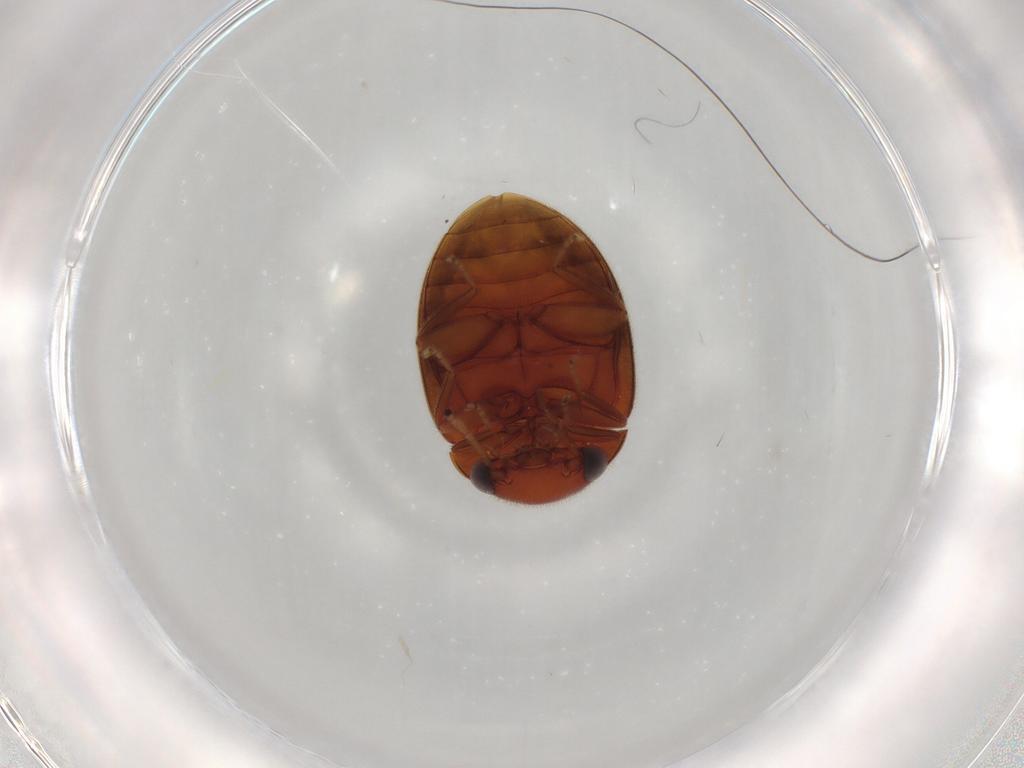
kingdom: Animalia
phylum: Arthropoda
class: Insecta
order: Coleoptera
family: Scirtidae
